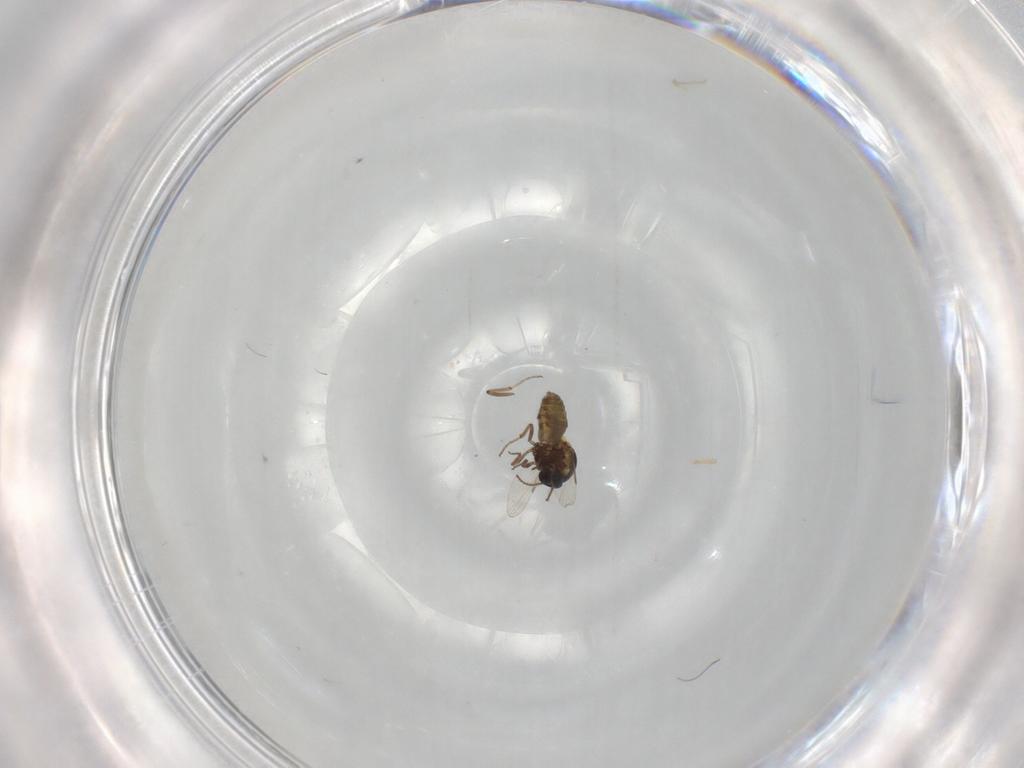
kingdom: Animalia
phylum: Arthropoda
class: Insecta
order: Diptera
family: Ceratopogonidae
